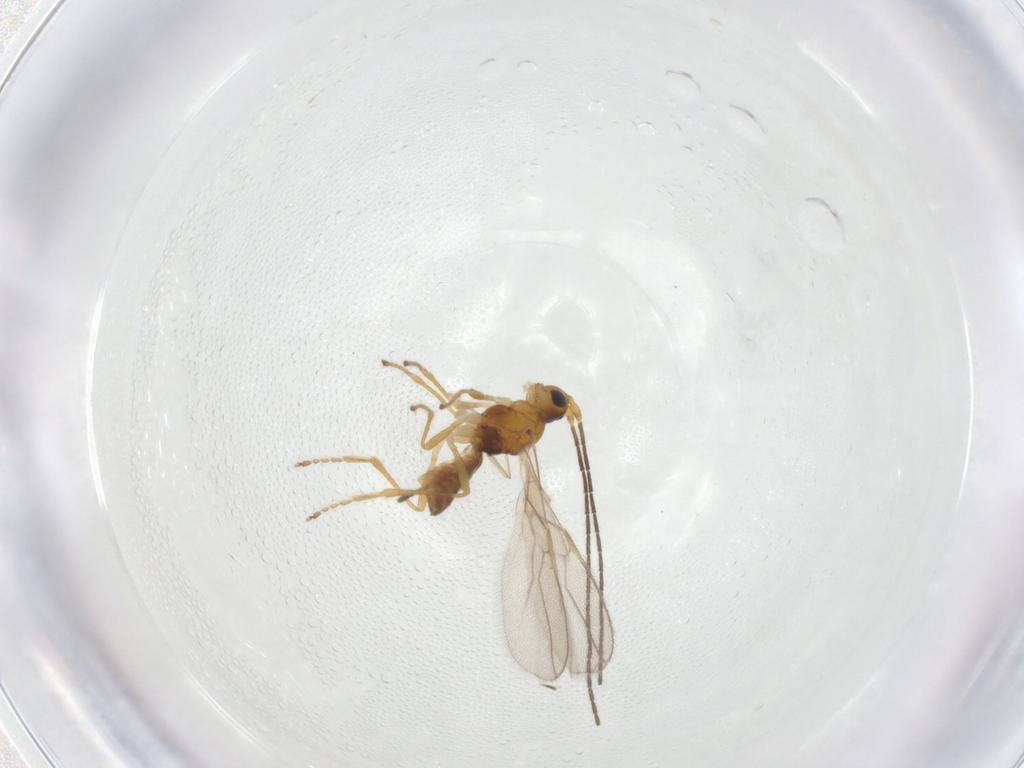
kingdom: Animalia
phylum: Arthropoda
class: Insecta
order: Hymenoptera
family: Braconidae
